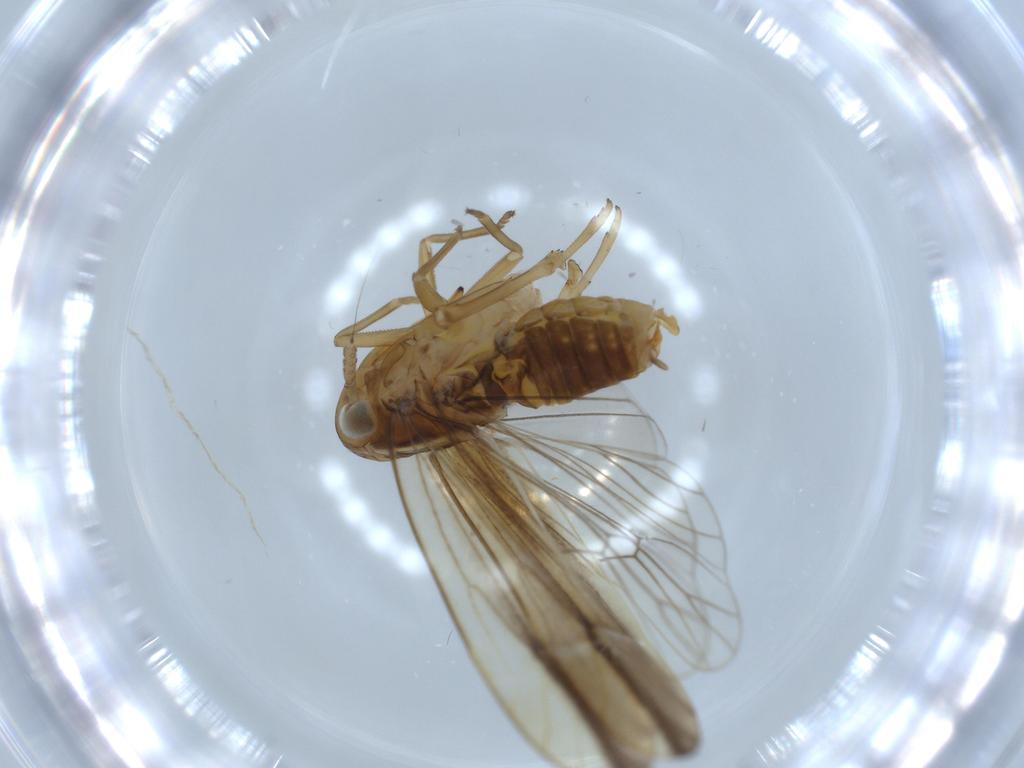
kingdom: Animalia
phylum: Arthropoda
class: Insecta
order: Hemiptera
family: Delphacidae
